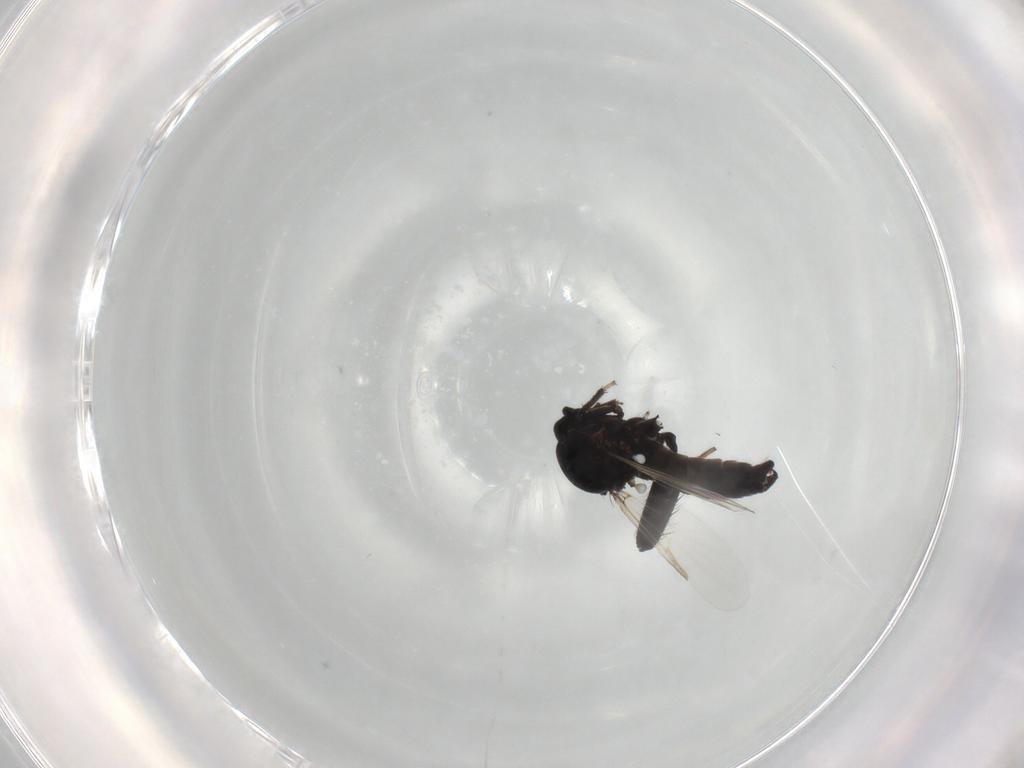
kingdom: Animalia
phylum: Arthropoda
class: Insecta
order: Diptera
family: Ceratopogonidae
